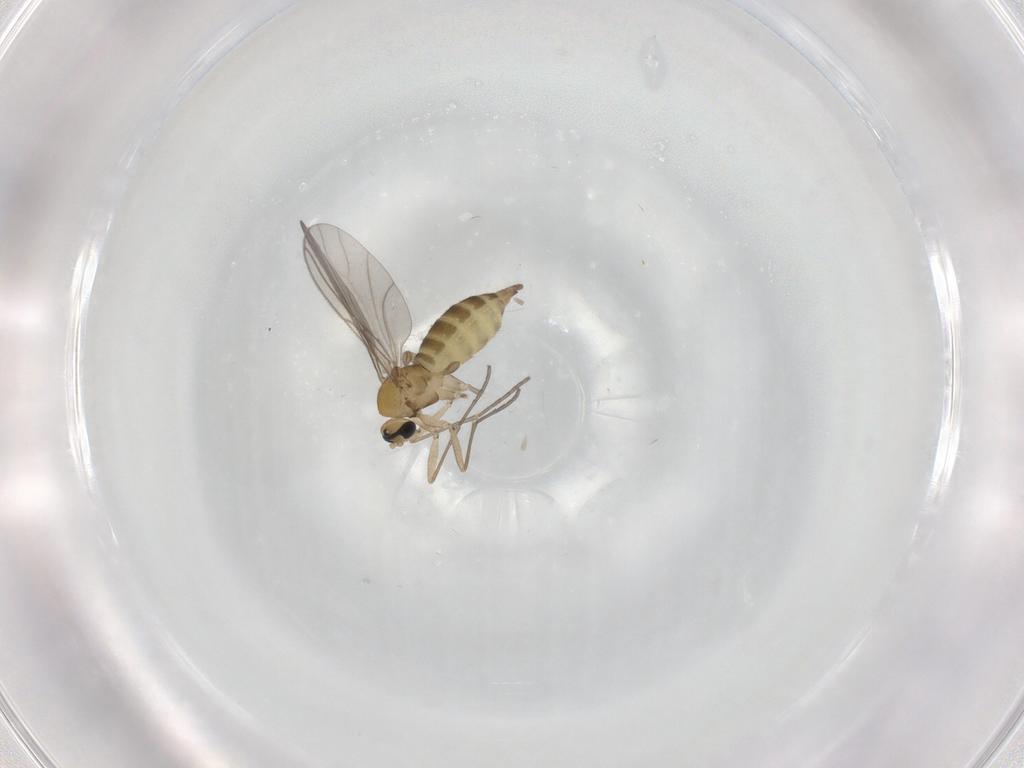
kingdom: Animalia
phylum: Arthropoda
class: Insecta
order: Diptera
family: Sciaridae
